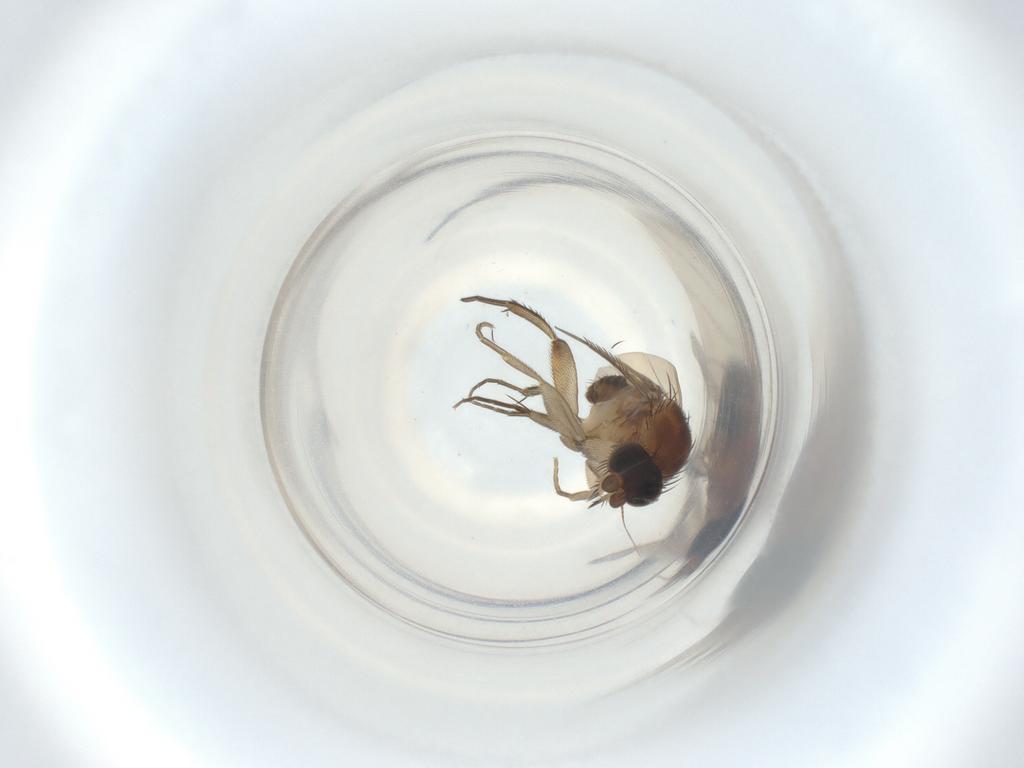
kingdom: Animalia
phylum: Arthropoda
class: Insecta
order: Diptera
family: Phoridae
